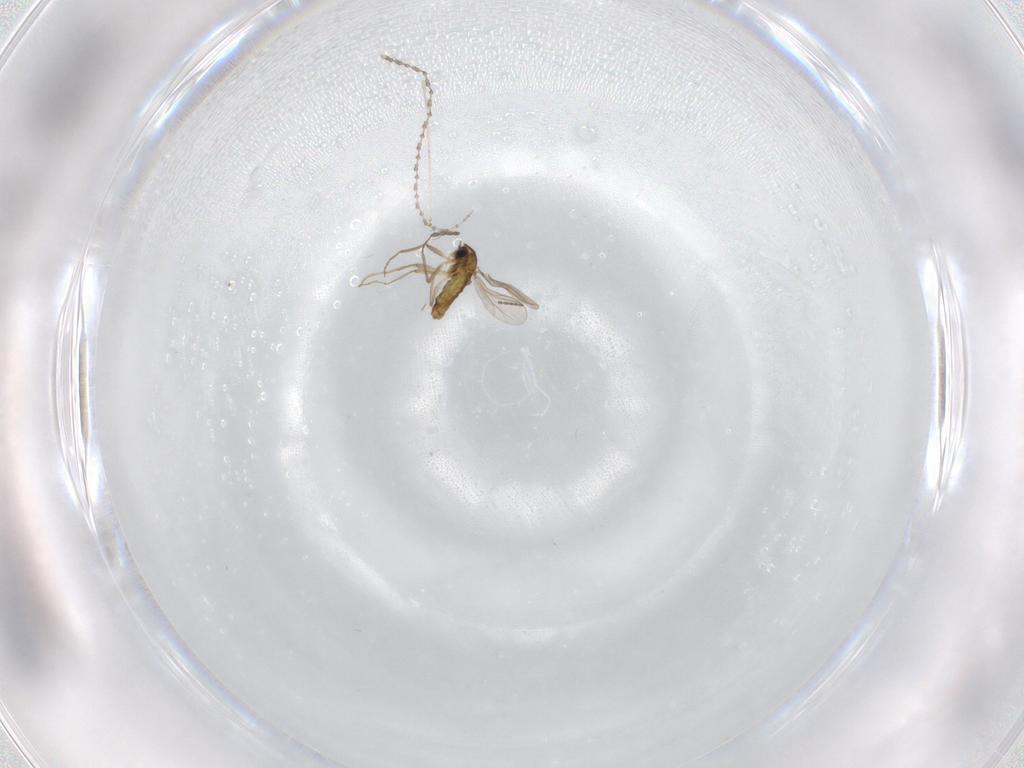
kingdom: Animalia
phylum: Arthropoda
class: Insecta
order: Diptera
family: Chironomidae
